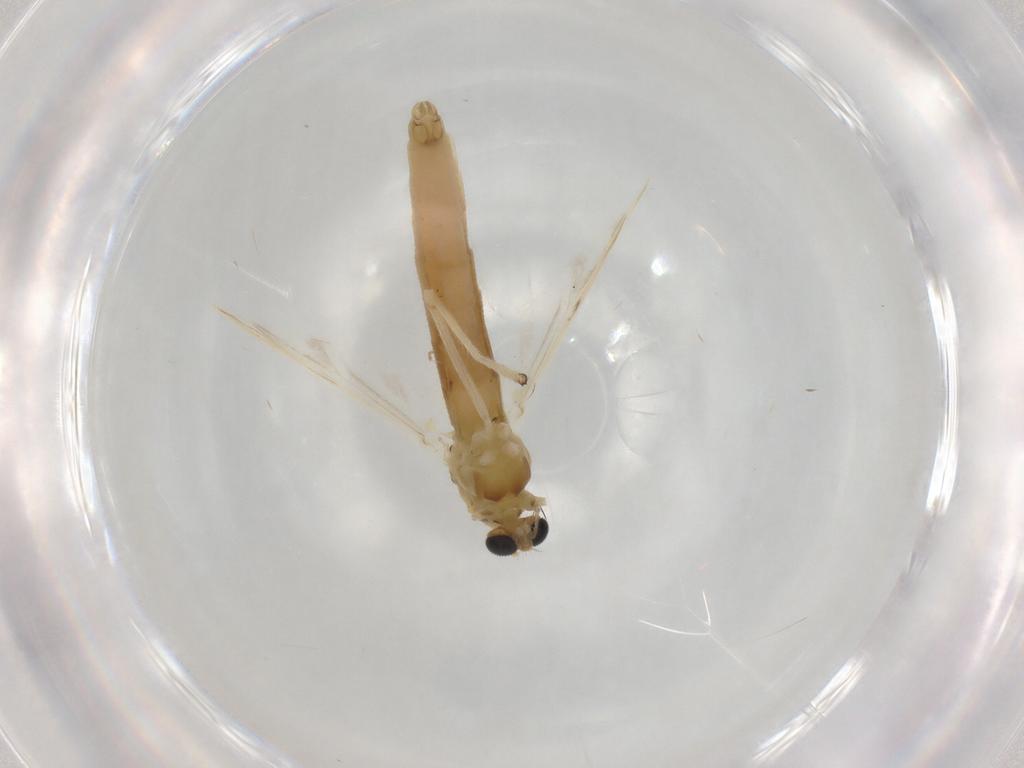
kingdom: Animalia
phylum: Arthropoda
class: Insecta
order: Diptera
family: Chironomidae
